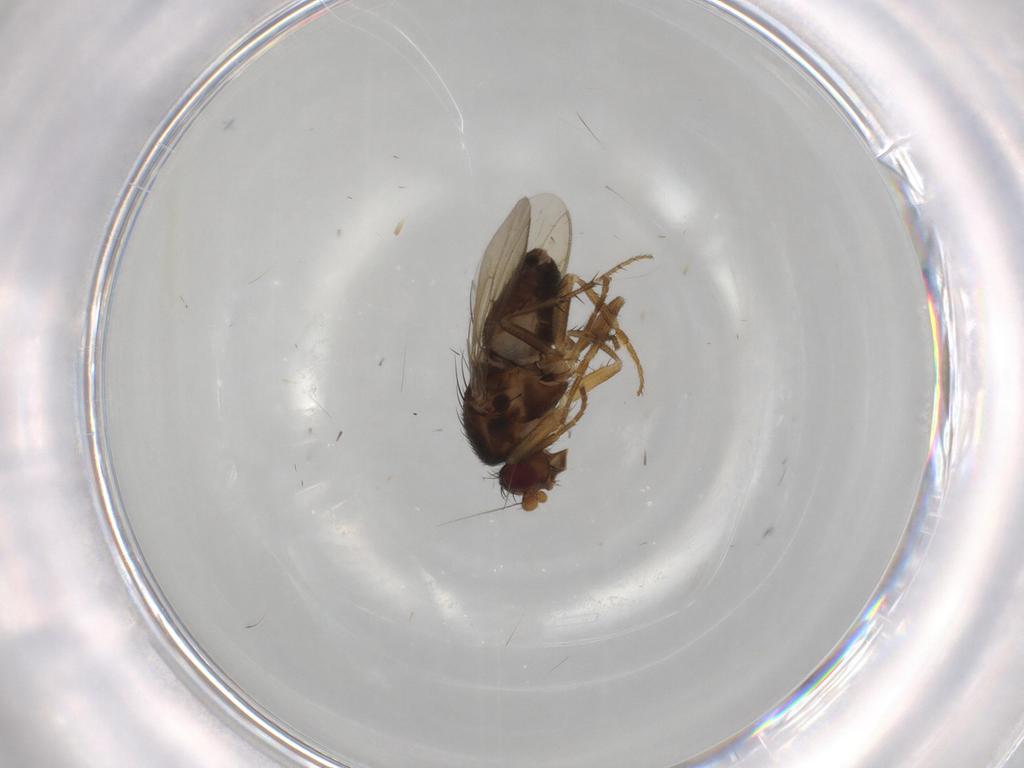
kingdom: Animalia
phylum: Arthropoda
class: Insecta
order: Diptera
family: Sphaeroceridae
